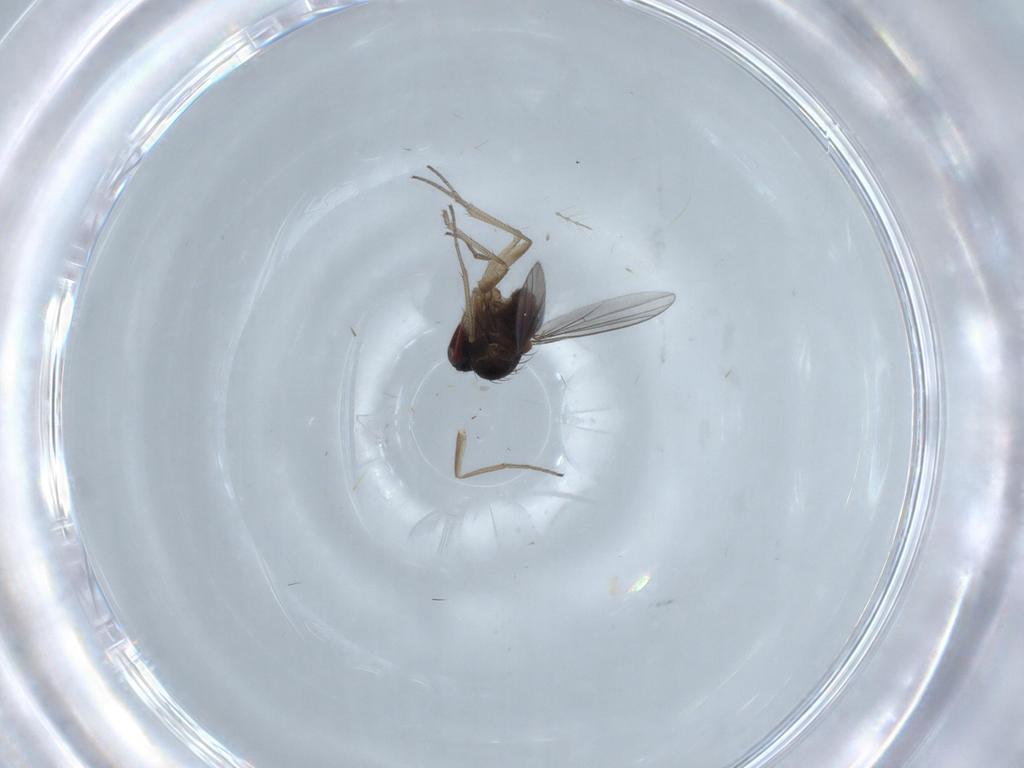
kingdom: Animalia
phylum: Arthropoda
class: Insecta
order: Diptera
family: Dolichopodidae
